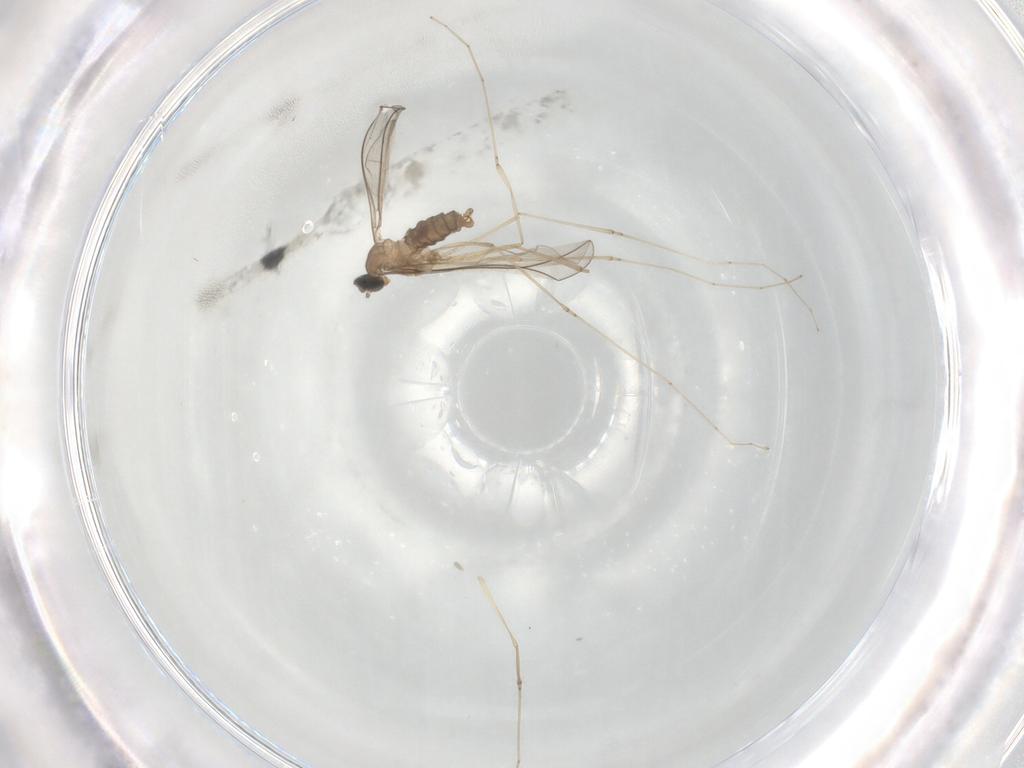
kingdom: Animalia
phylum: Arthropoda
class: Insecta
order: Diptera
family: Cecidomyiidae
